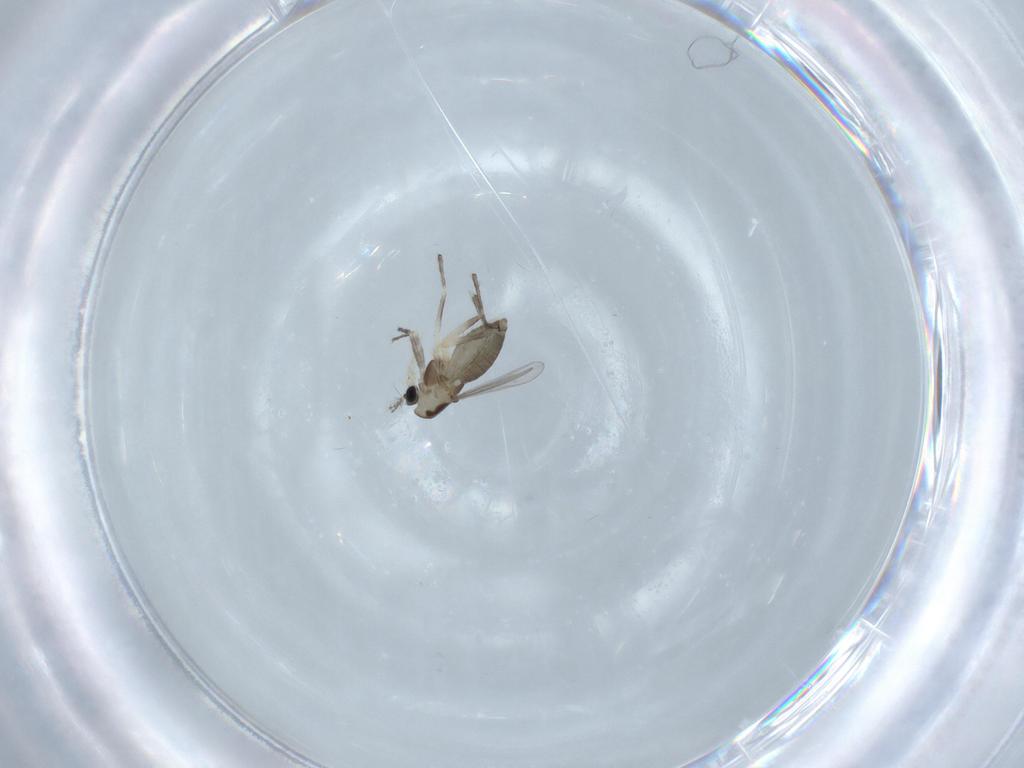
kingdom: Animalia
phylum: Arthropoda
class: Insecta
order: Diptera
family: Chironomidae
